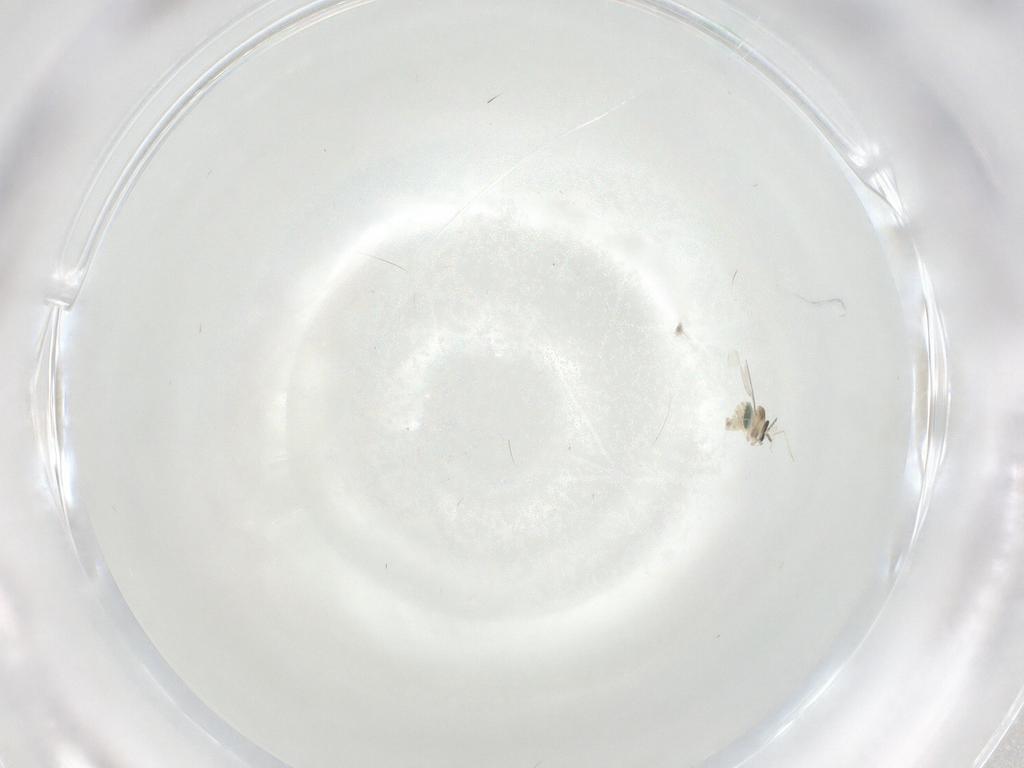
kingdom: Animalia
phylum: Arthropoda
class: Insecta
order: Diptera
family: Cecidomyiidae
